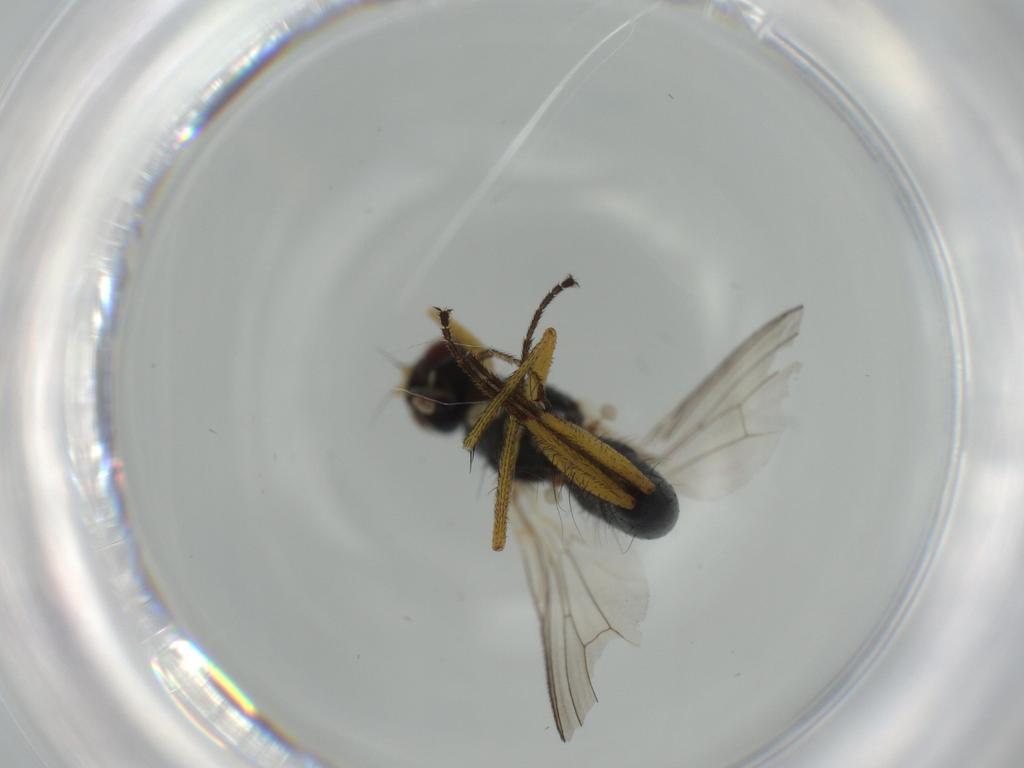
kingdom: Animalia
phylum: Arthropoda
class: Insecta
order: Diptera
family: Muscidae
